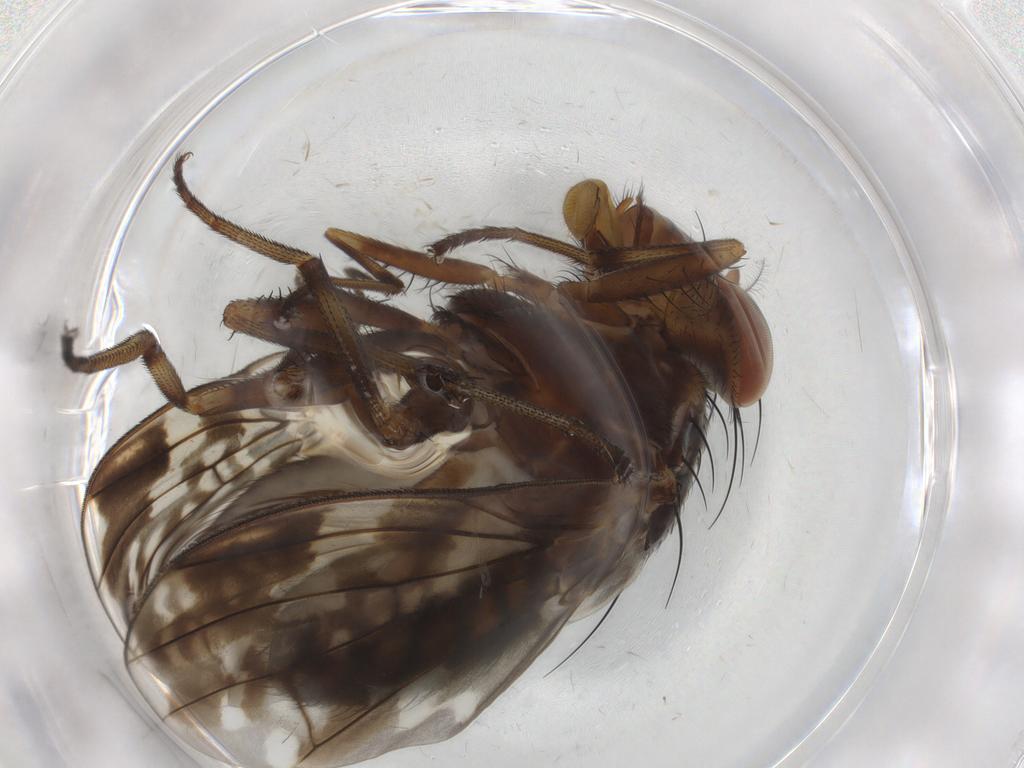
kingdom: Animalia
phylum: Arthropoda
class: Insecta
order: Diptera
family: Lauxaniidae
